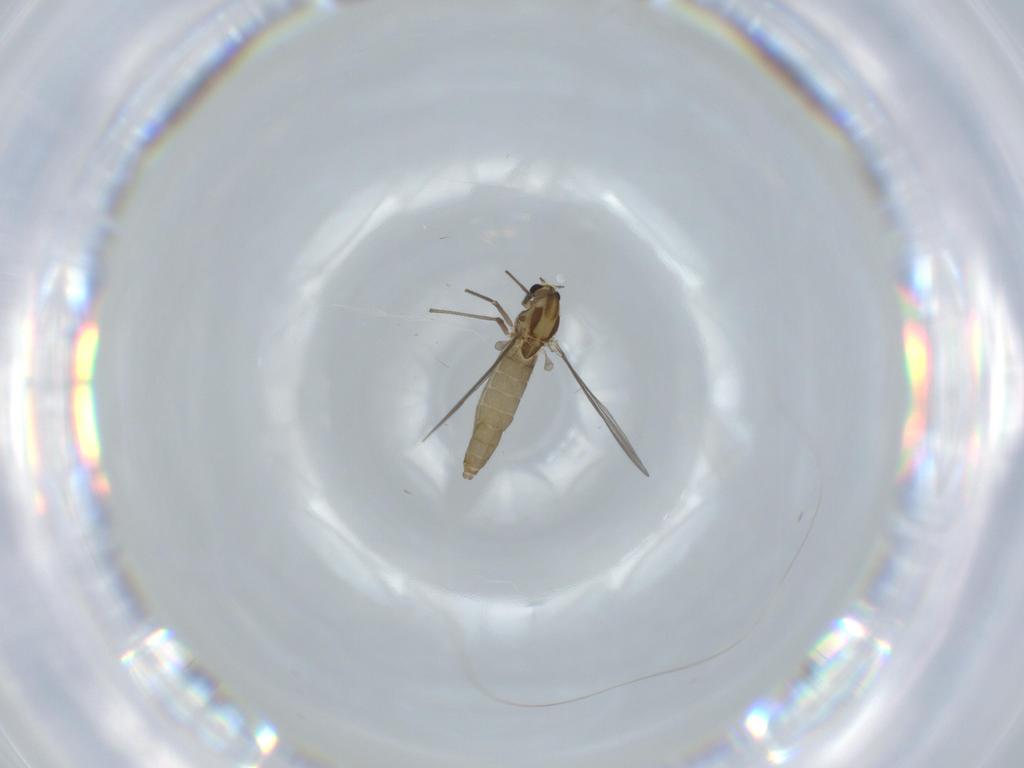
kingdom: Animalia
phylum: Arthropoda
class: Insecta
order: Diptera
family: Chironomidae
